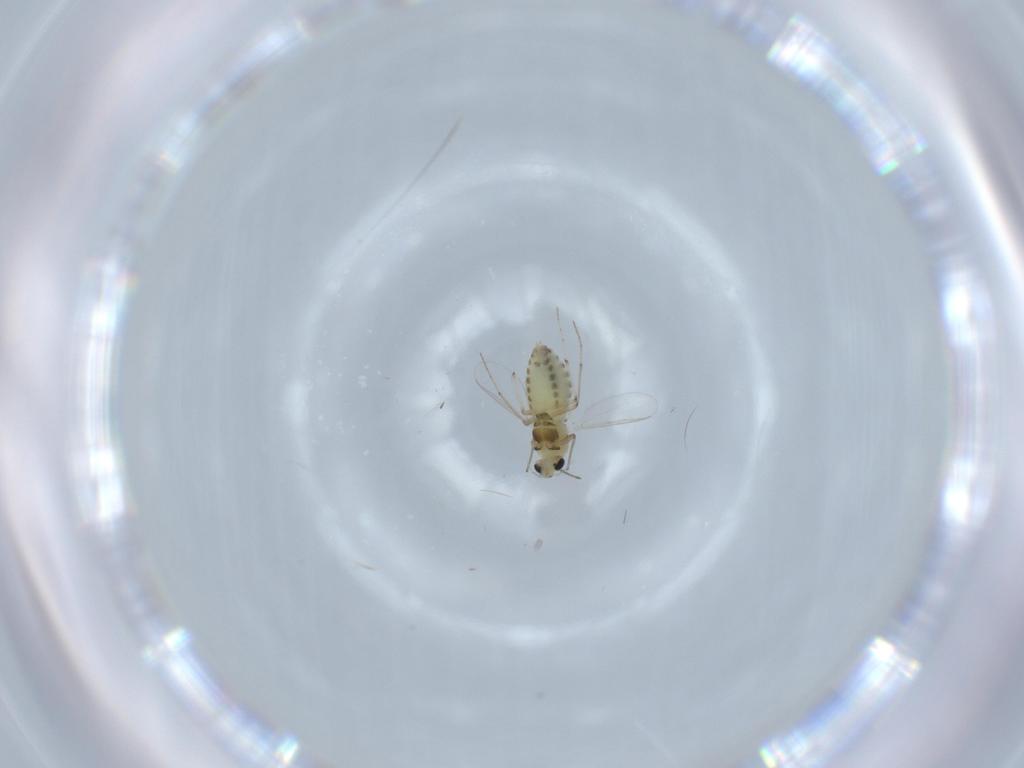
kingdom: Animalia
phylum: Arthropoda
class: Insecta
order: Diptera
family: Chironomidae
